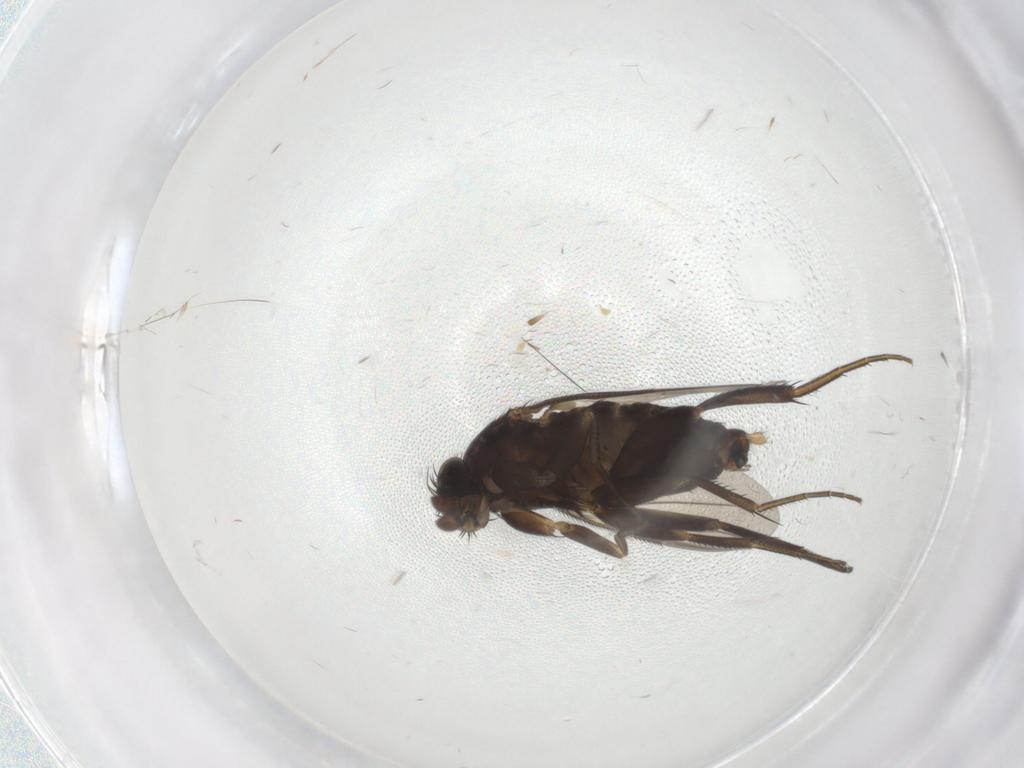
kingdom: Animalia
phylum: Arthropoda
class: Insecta
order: Diptera
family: Phoridae
